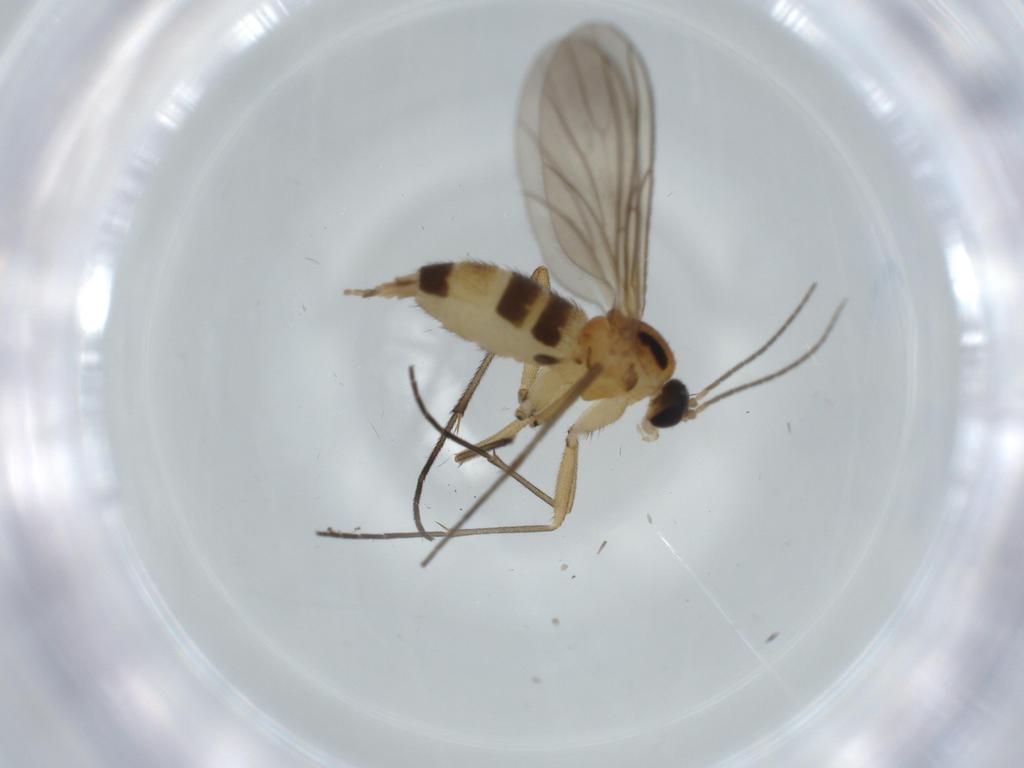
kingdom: Animalia
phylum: Arthropoda
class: Insecta
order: Diptera
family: Sciaridae
